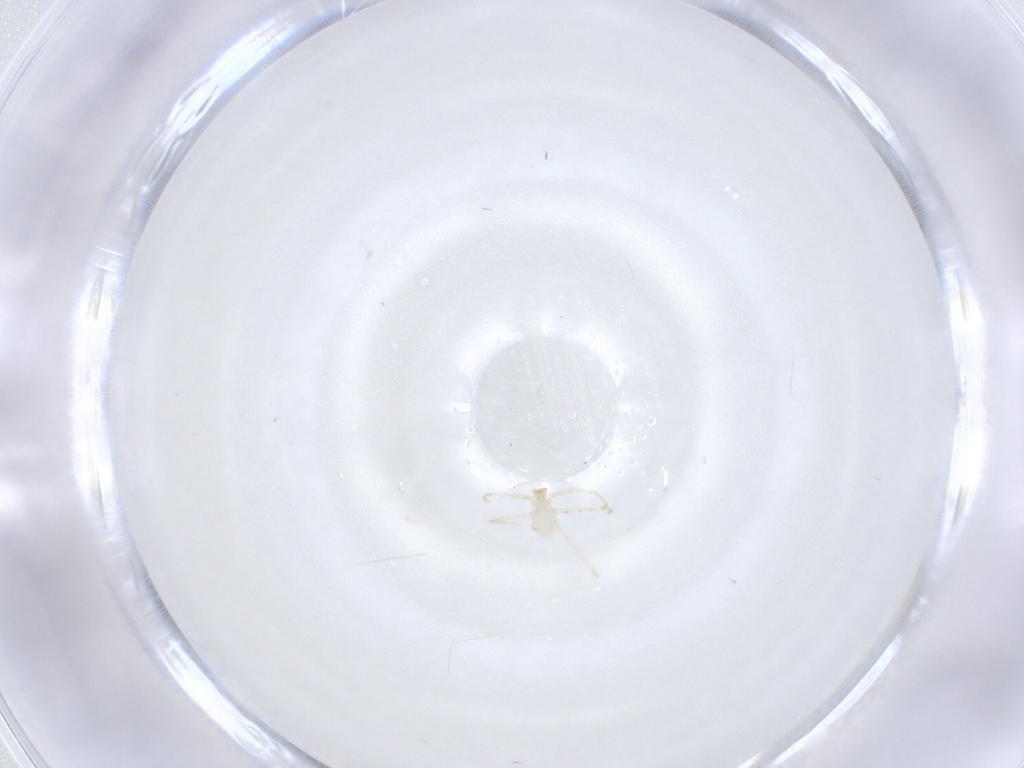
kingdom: Animalia
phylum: Arthropoda
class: Arachnida
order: Trombidiformes
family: Erythraeidae
